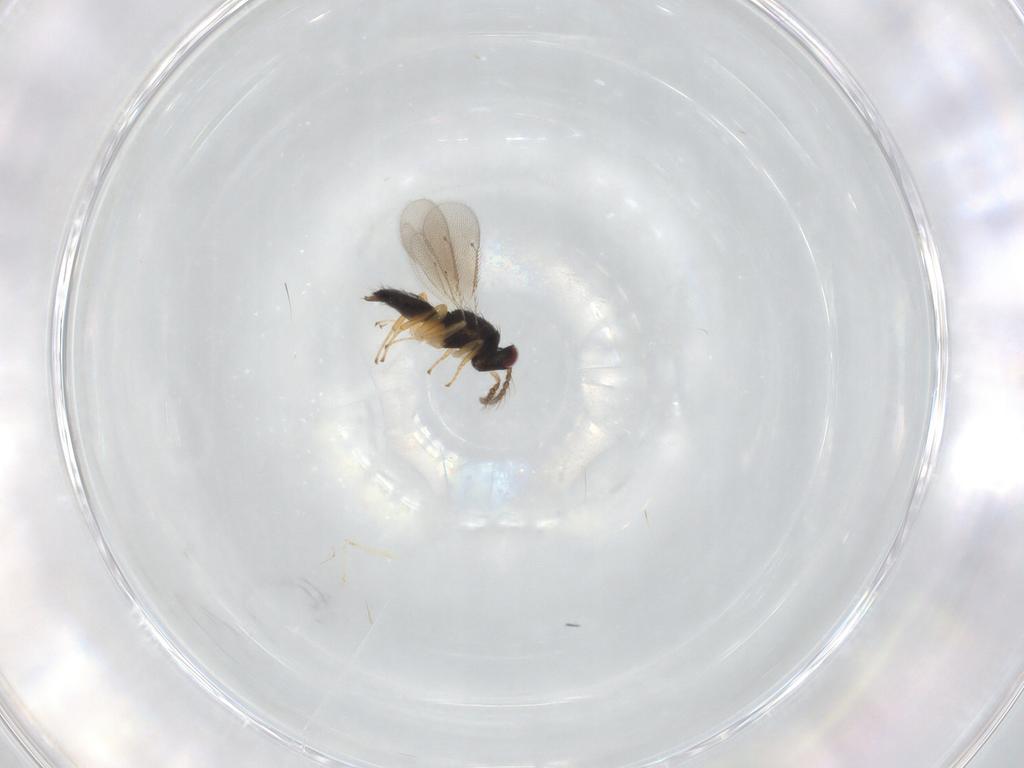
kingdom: Animalia
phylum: Arthropoda
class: Insecta
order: Hymenoptera
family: Eulophidae
